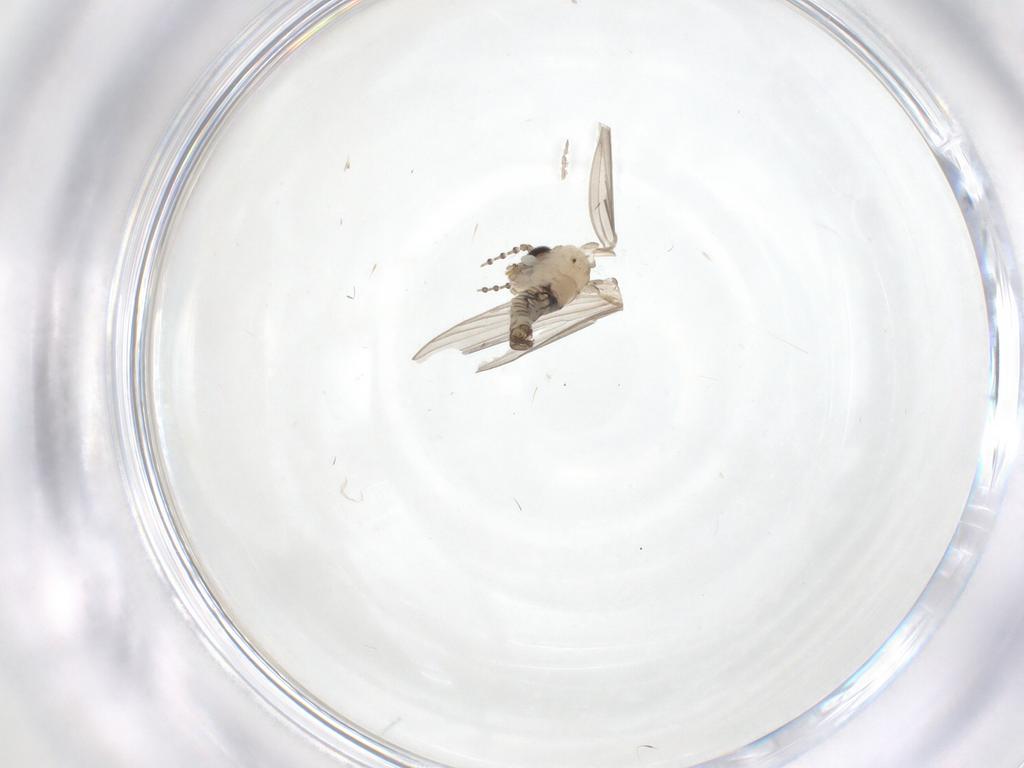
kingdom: Animalia
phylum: Arthropoda
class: Insecta
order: Diptera
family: Psychodidae
